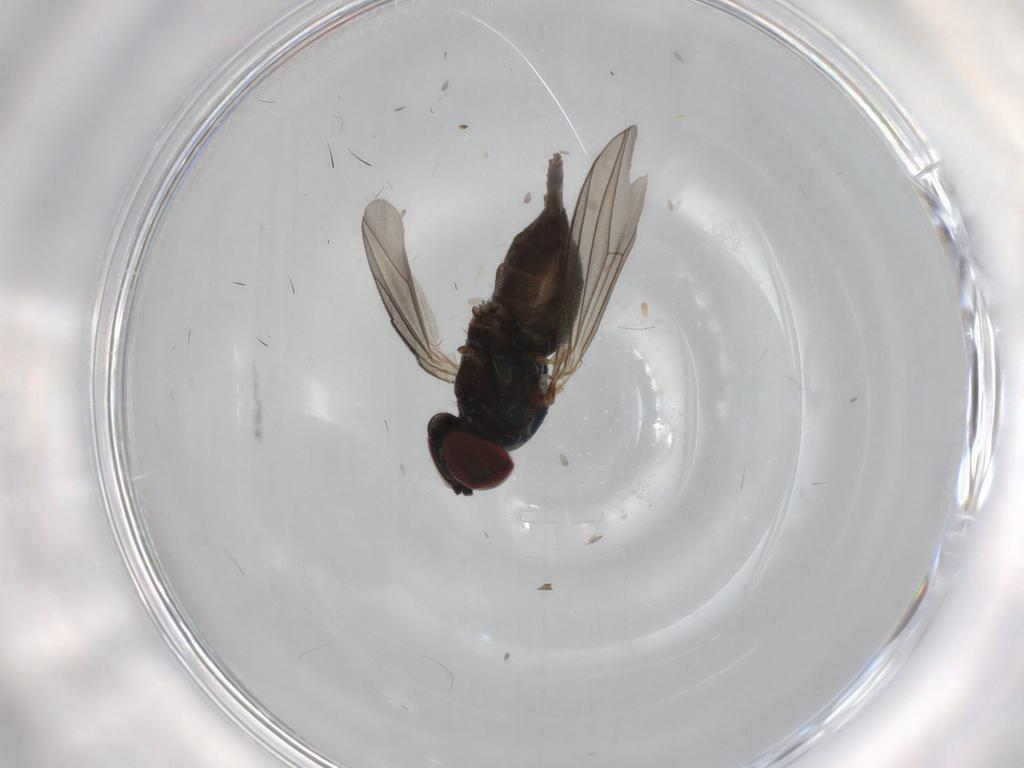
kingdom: Animalia
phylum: Arthropoda
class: Insecta
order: Diptera
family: Dolichopodidae
